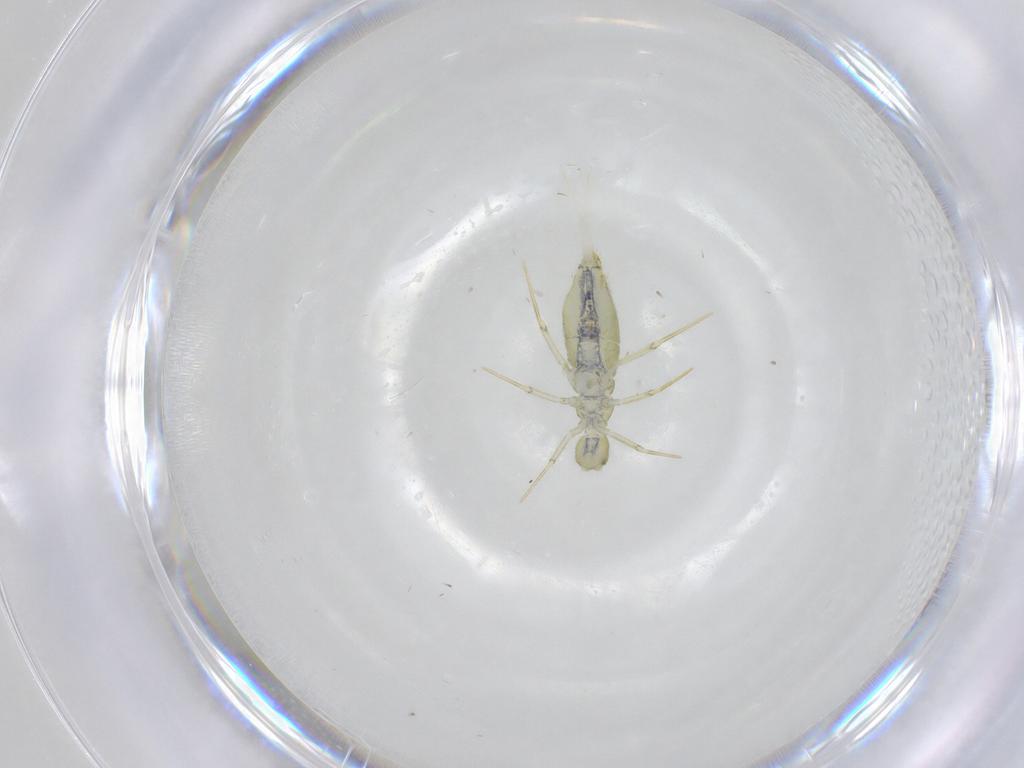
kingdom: Animalia
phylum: Arthropoda
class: Collembola
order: Entomobryomorpha
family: Paronellidae
